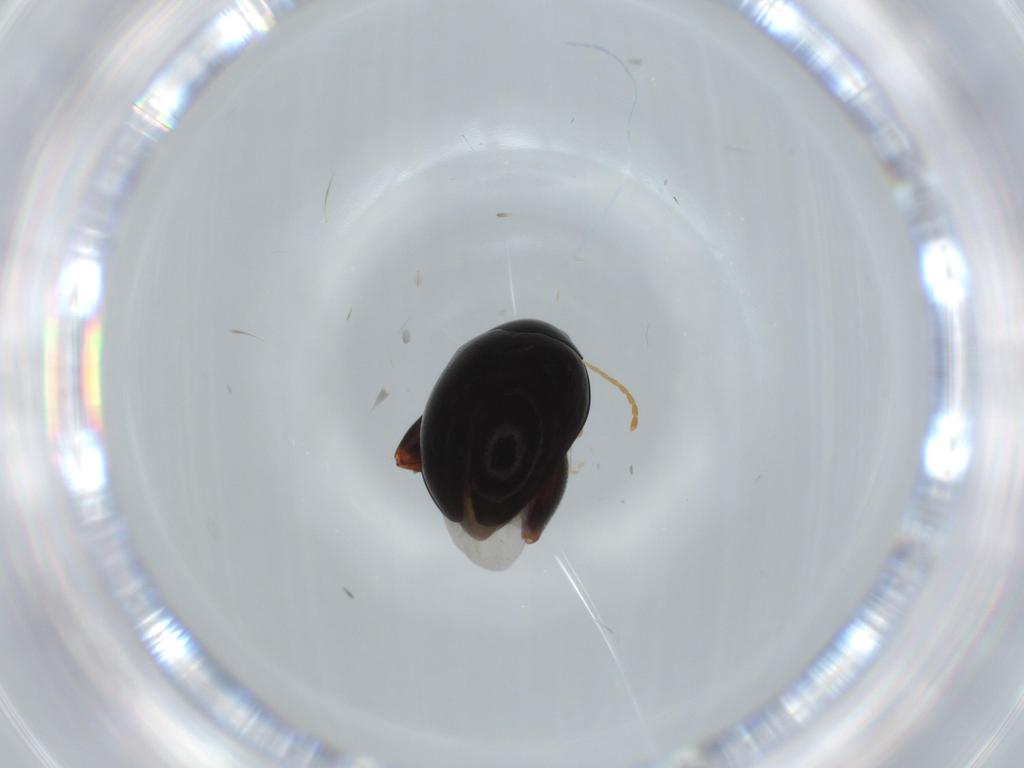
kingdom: Animalia
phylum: Arthropoda
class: Insecta
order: Coleoptera
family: Chrysomelidae
